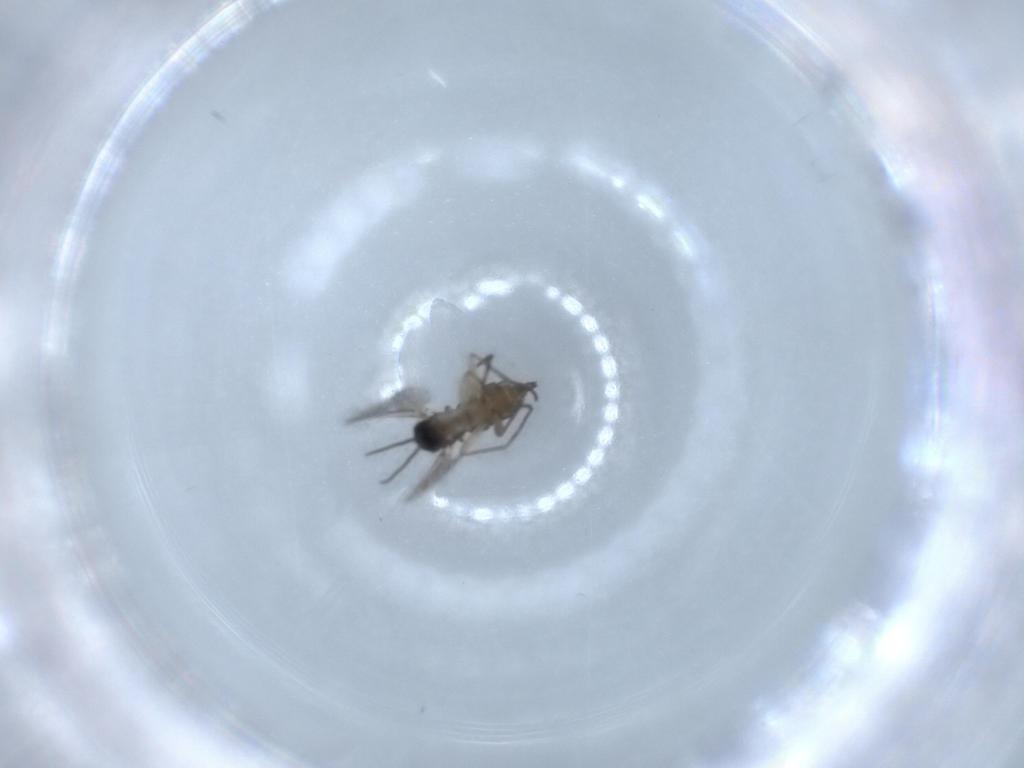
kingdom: Animalia
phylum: Arthropoda
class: Insecta
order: Diptera
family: Sciaridae
